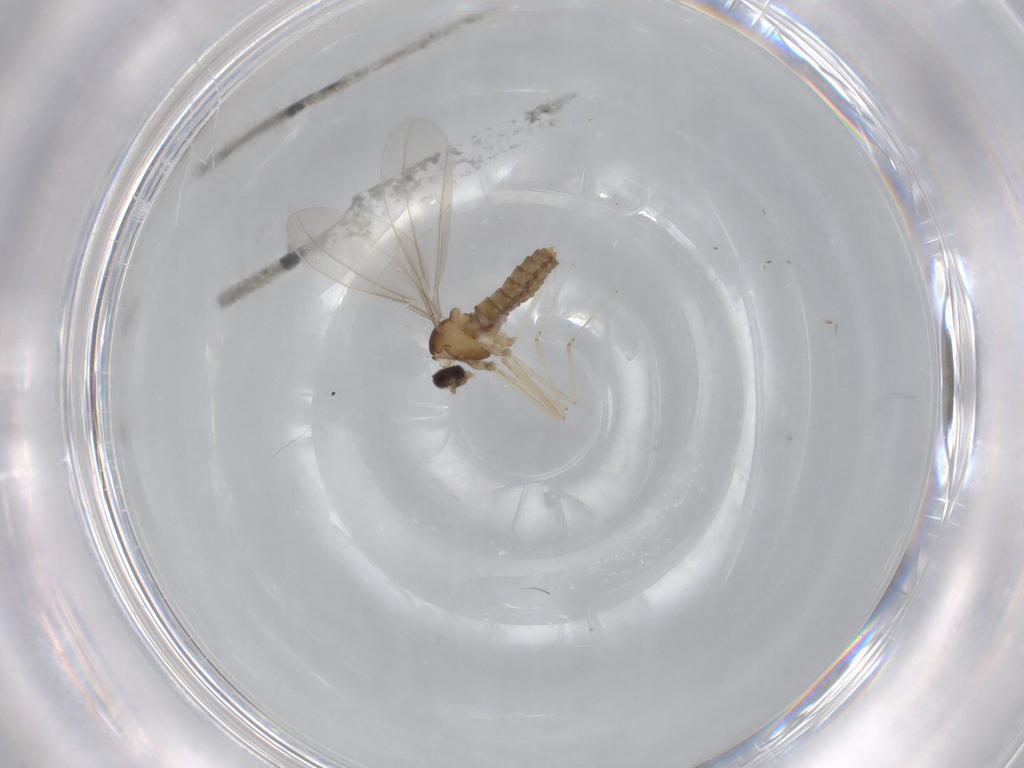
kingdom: Animalia
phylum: Arthropoda
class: Insecta
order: Diptera
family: Cecidomyiidae
